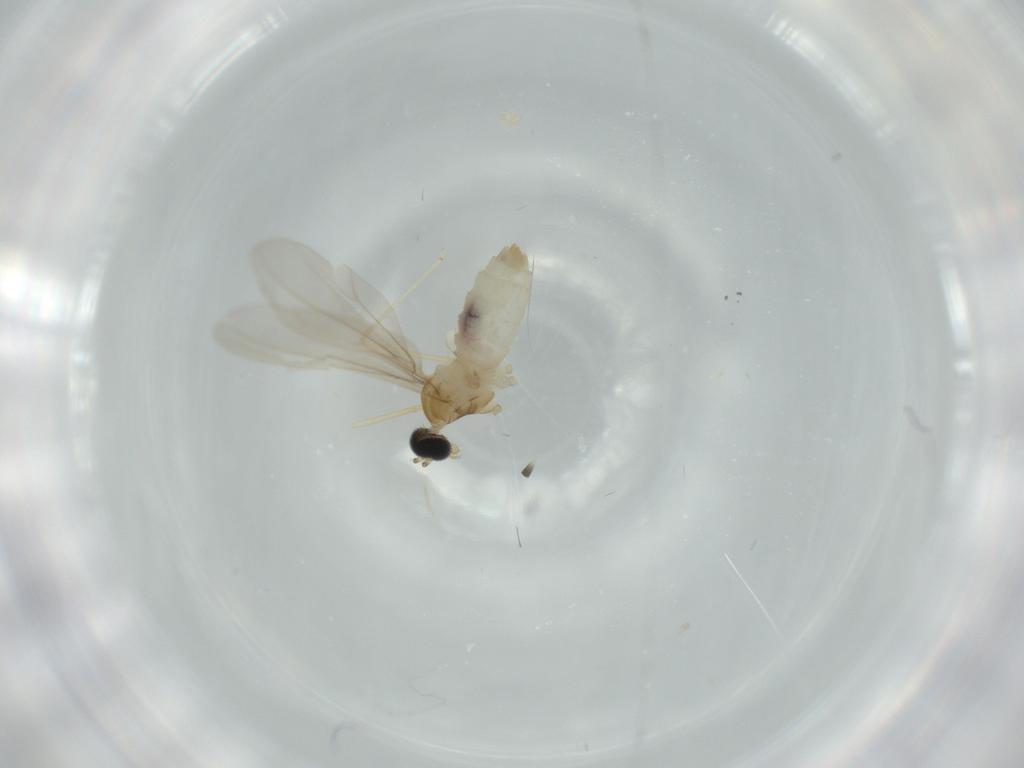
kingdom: Animalia
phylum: Arthropoda
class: Insecta
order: Diptera
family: Cecidomyiidae
